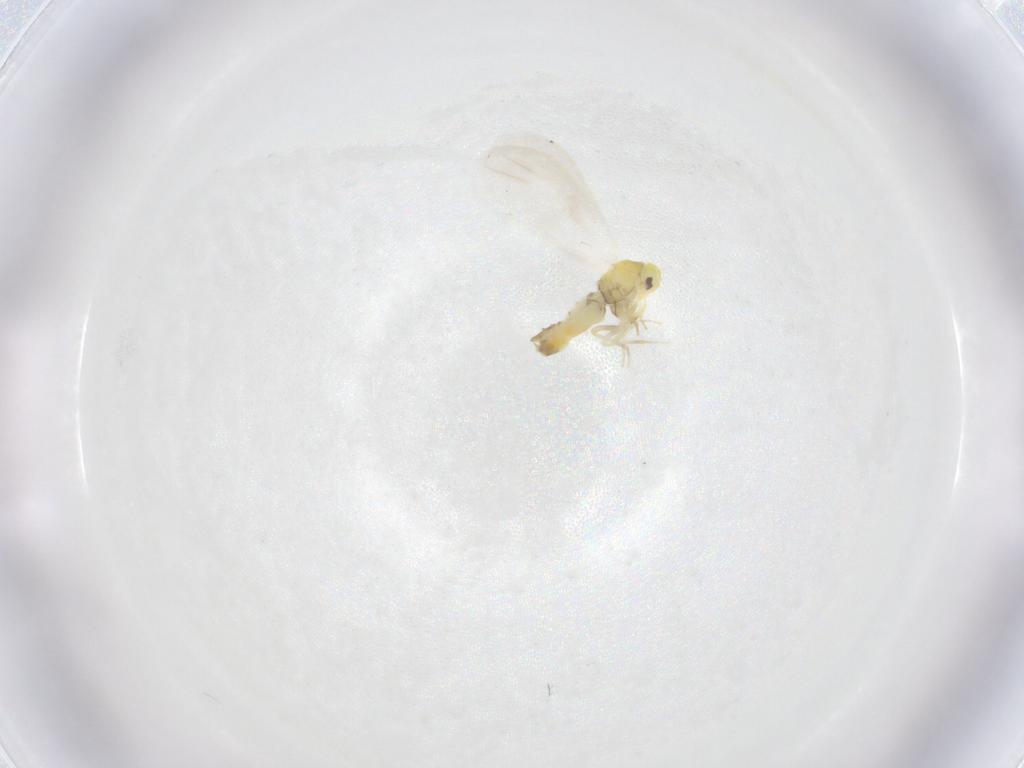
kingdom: Animalia
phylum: Arthropoda
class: Insecta
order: Hemiptera
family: Aleyrodidae
